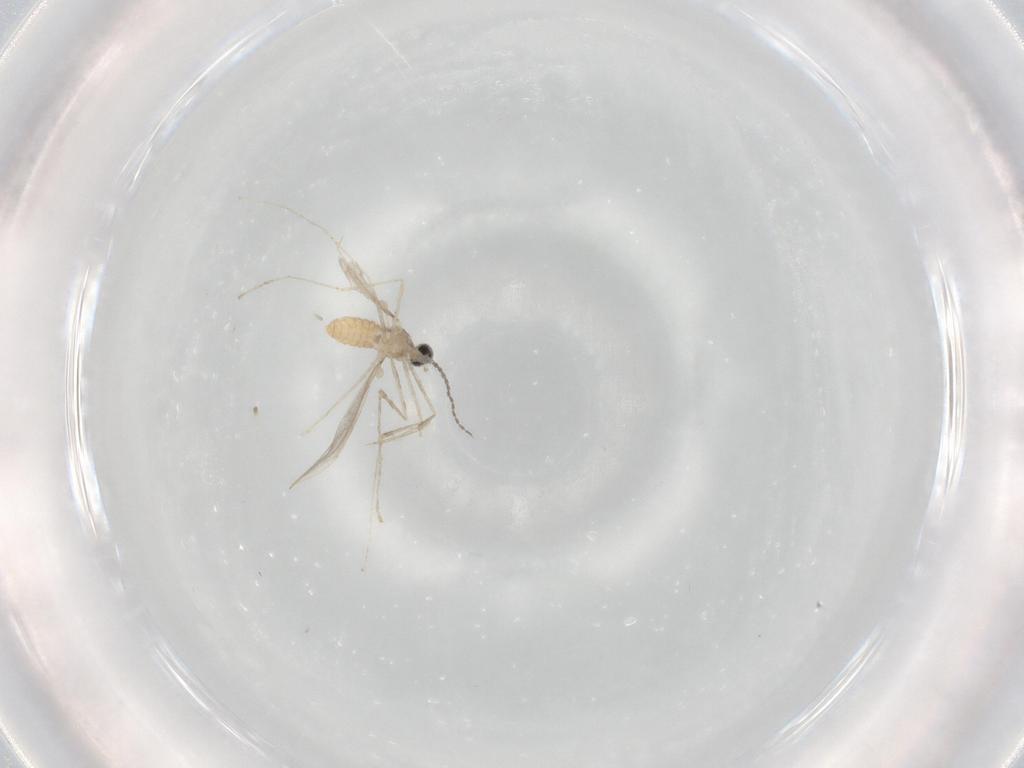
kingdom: Animalia
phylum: Arthropoda
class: Insecta
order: Diptera
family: Cecidomyiidae
